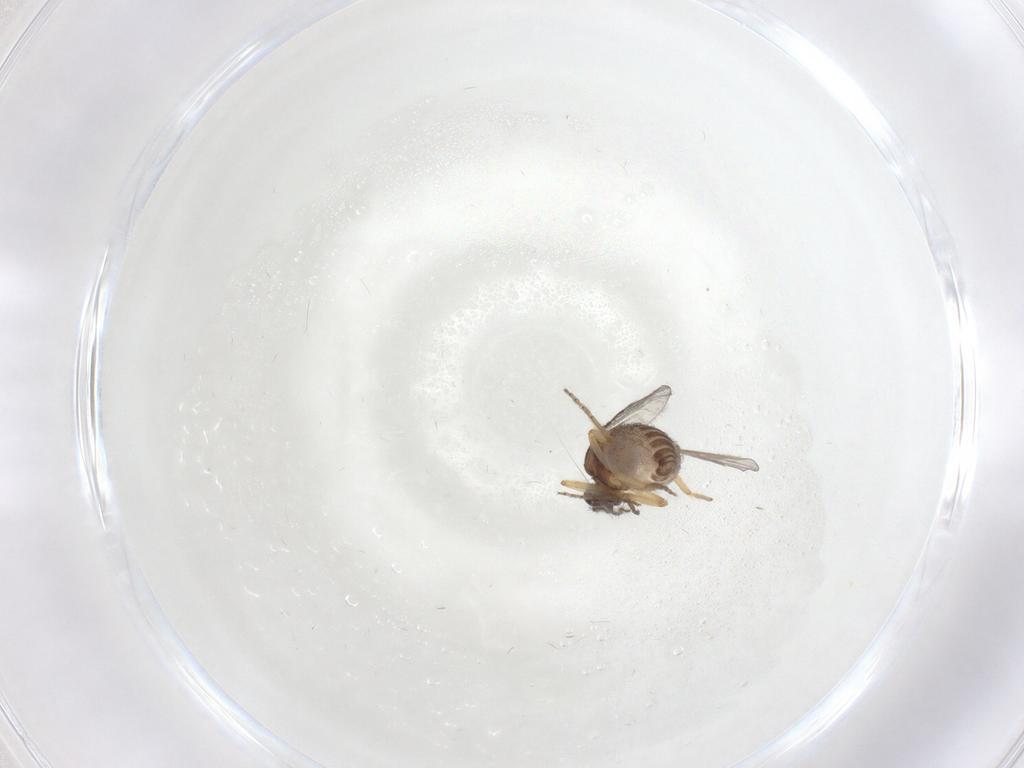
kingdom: Animalia
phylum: Arthropoda
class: Insecta
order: Diptera
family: Ceratopogonidae
